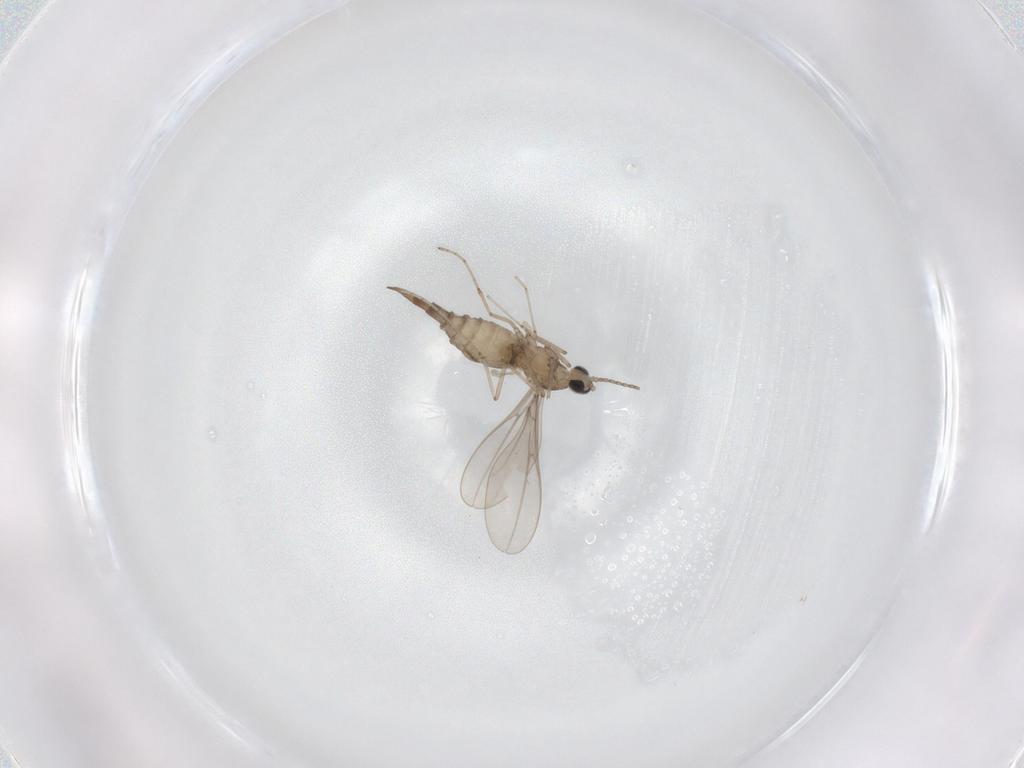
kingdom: Animalia
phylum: Arthropoda
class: Insecta
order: Diptera
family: Cecidomyiidae
